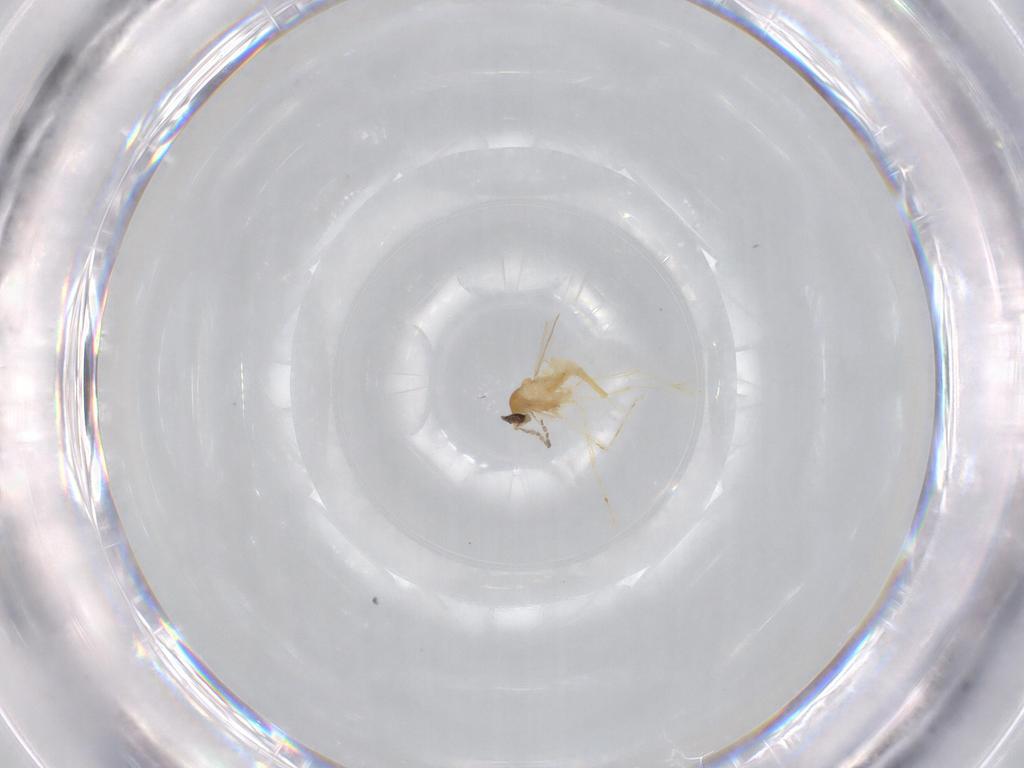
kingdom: Animalia
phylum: Arthropoda
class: Insecta
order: Diptera
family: Cecidomyiidae
